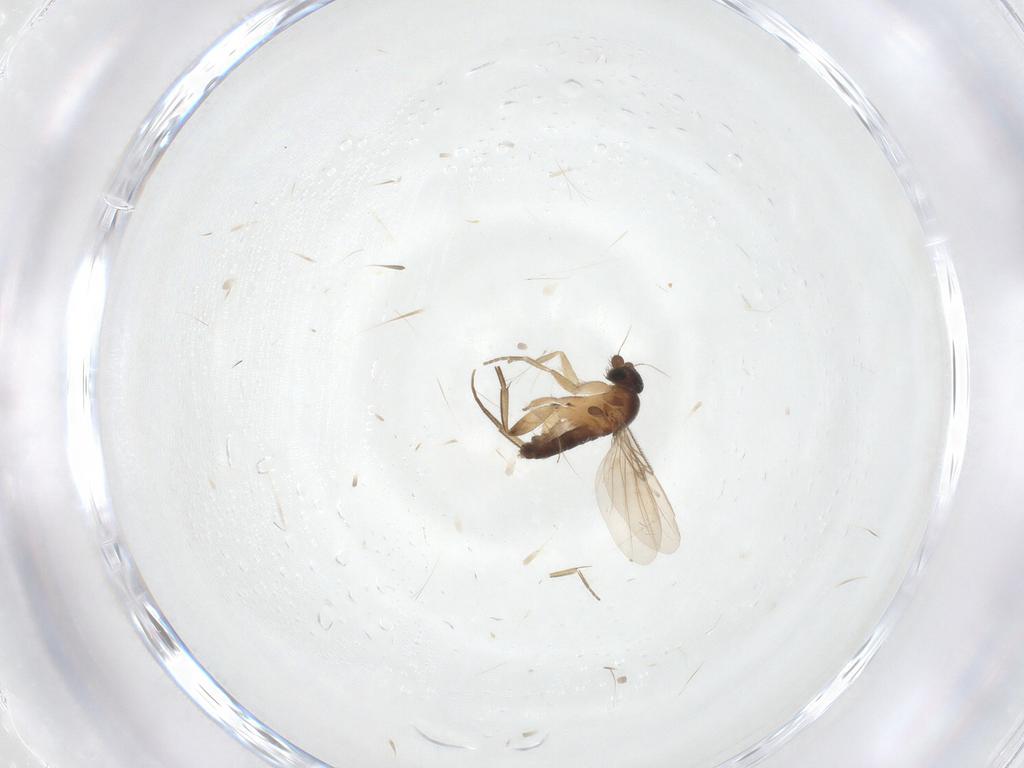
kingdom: Animalia
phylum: Arthropoda
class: Insecta
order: Diptera
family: Phoridae
